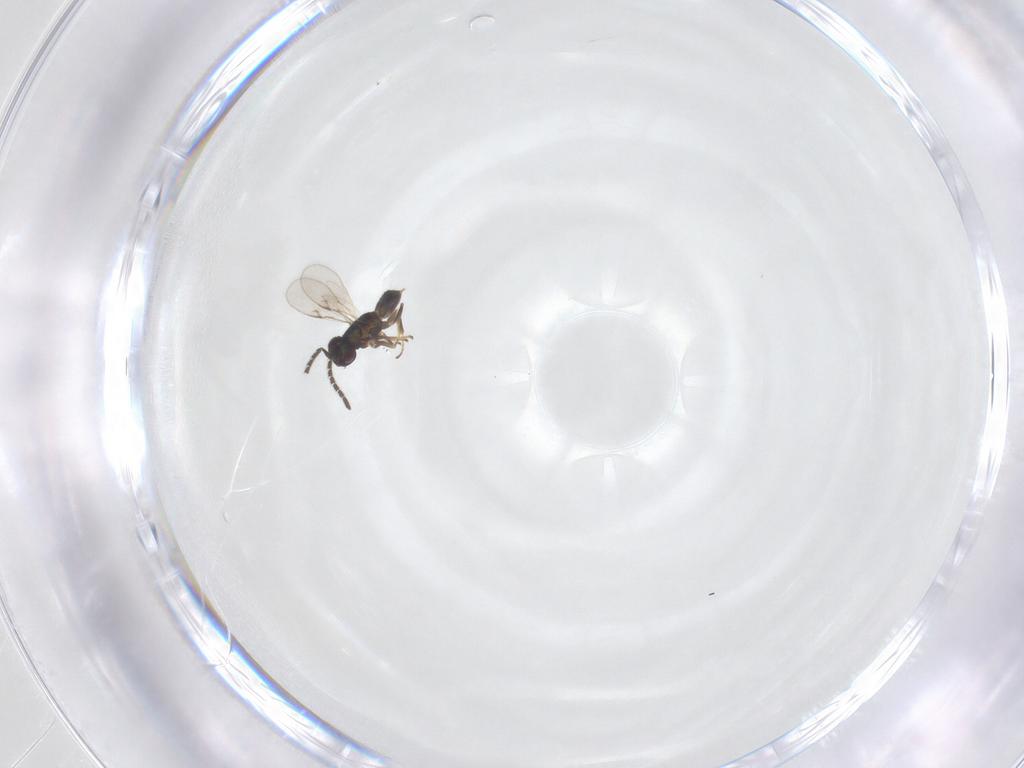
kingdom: Animalia
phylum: Arthropoda
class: Insecta
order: Hymenoptera
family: Encyrtidae
